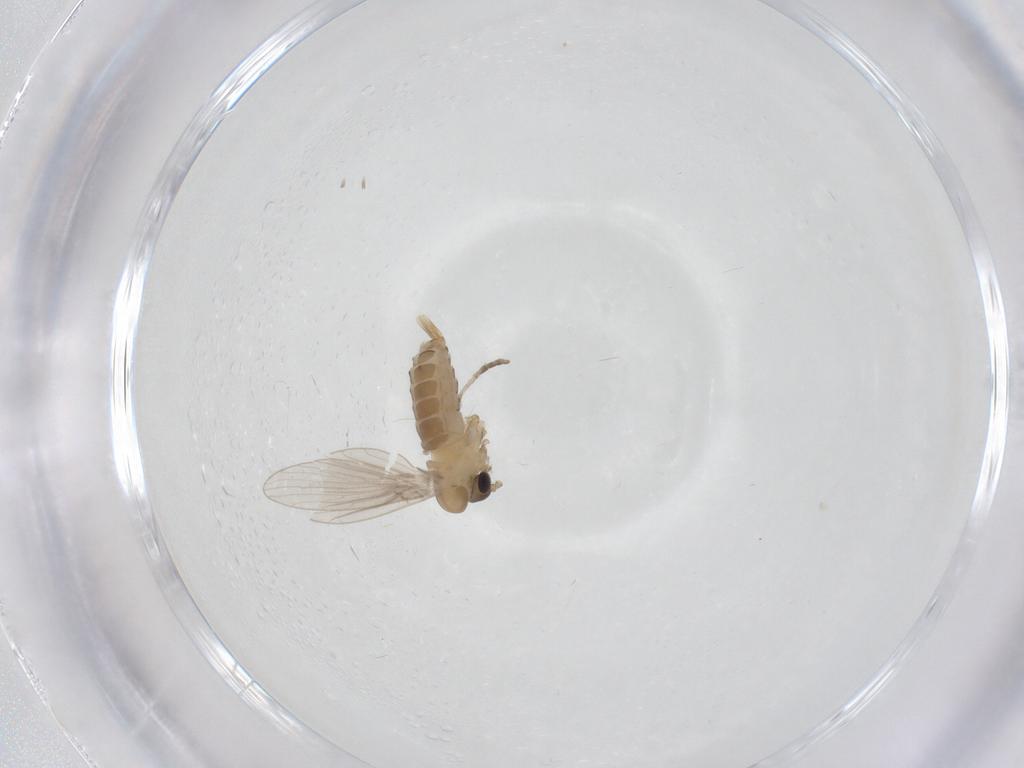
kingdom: Animalia
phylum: Arthropoda
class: Insecta
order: Diptera
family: Psychodidae
